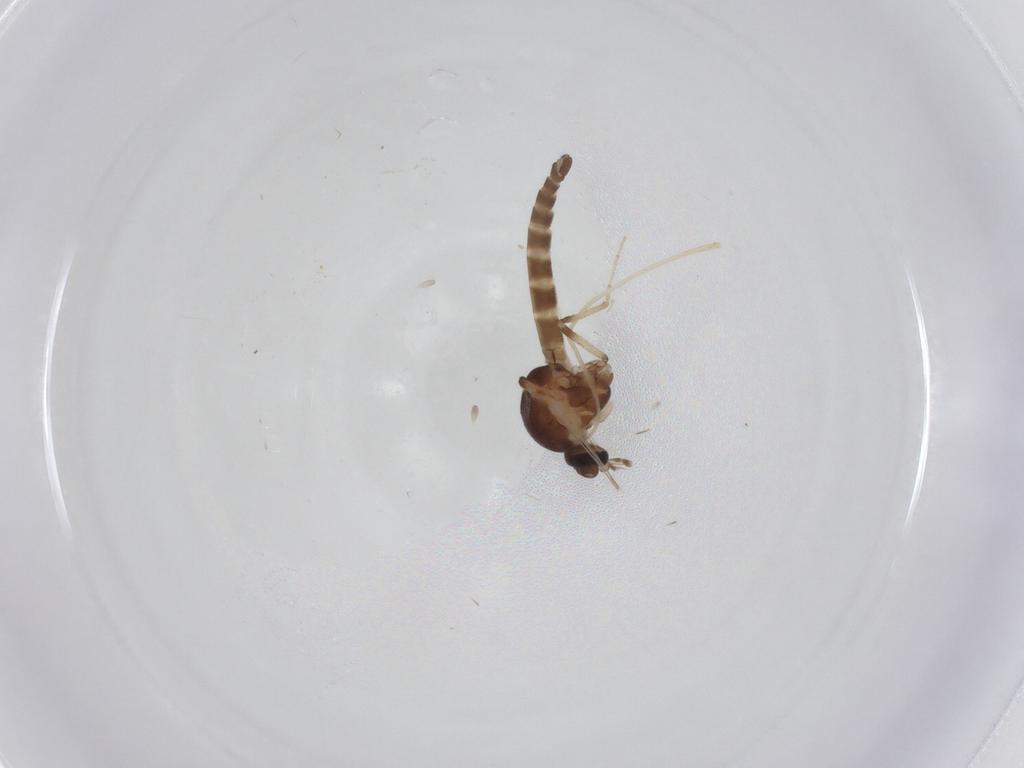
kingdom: Animalia
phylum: Arthropoda
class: Insecta
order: Diptera
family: Ceratopogonidae
